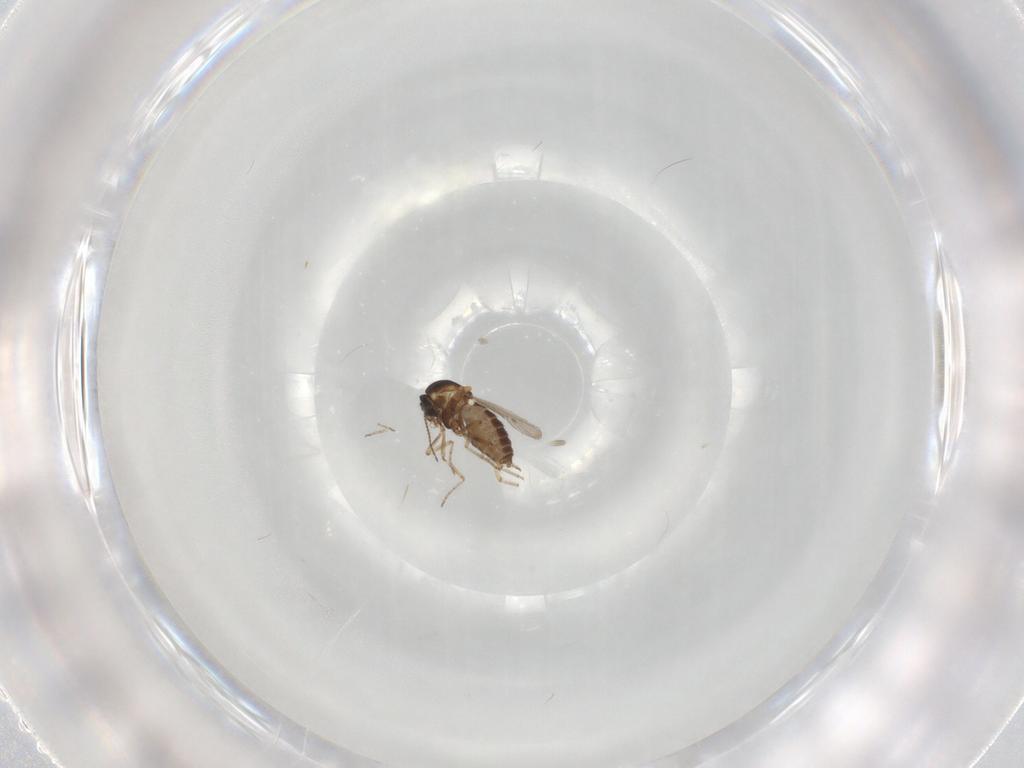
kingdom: Animalia
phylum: Arthropoda
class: Insecta
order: Diptera
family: Ceratopogonidae
